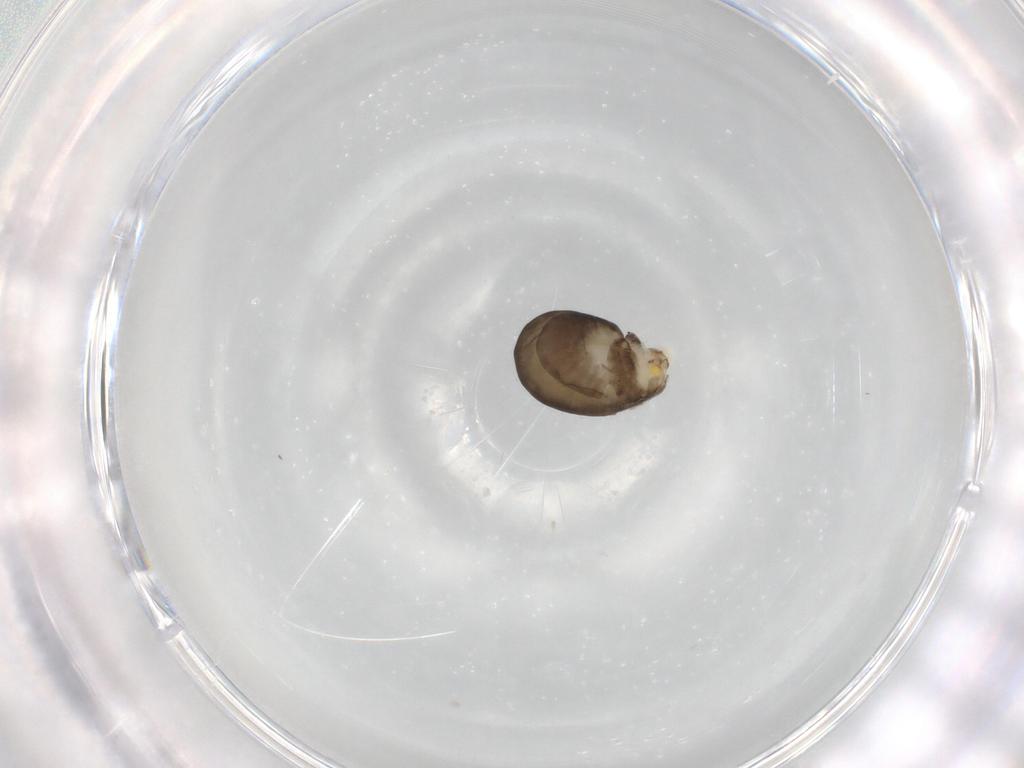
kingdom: Animalia
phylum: Arthropoda
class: Insecta
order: Hymenoptera
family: Dryinidae
